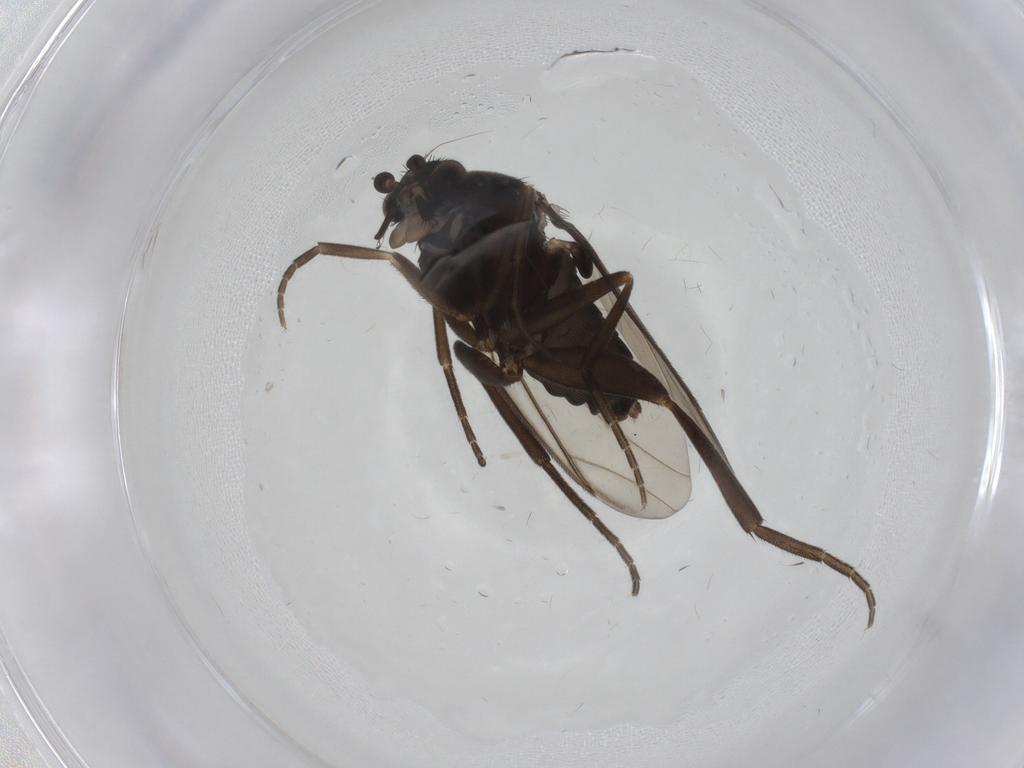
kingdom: Animalia
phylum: Arthropoda
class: Insecta
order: Diptera
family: Phoridae
